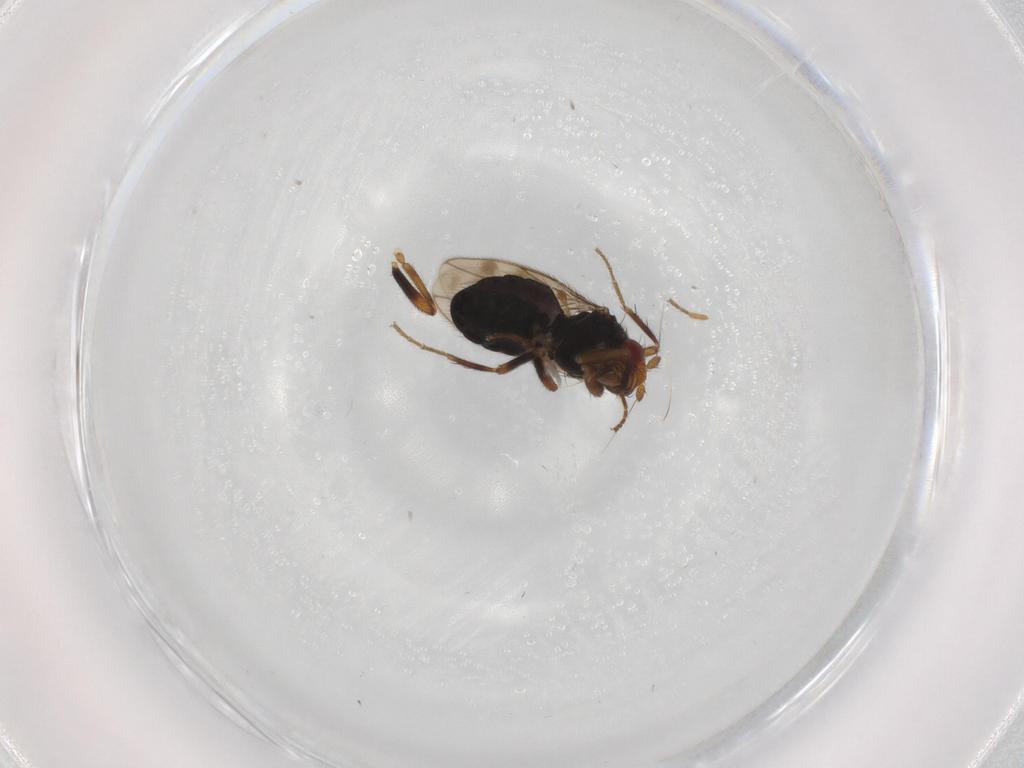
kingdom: Animalia
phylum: Arthropoda
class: Insecta
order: Diptera
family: Sphaeroceridae
